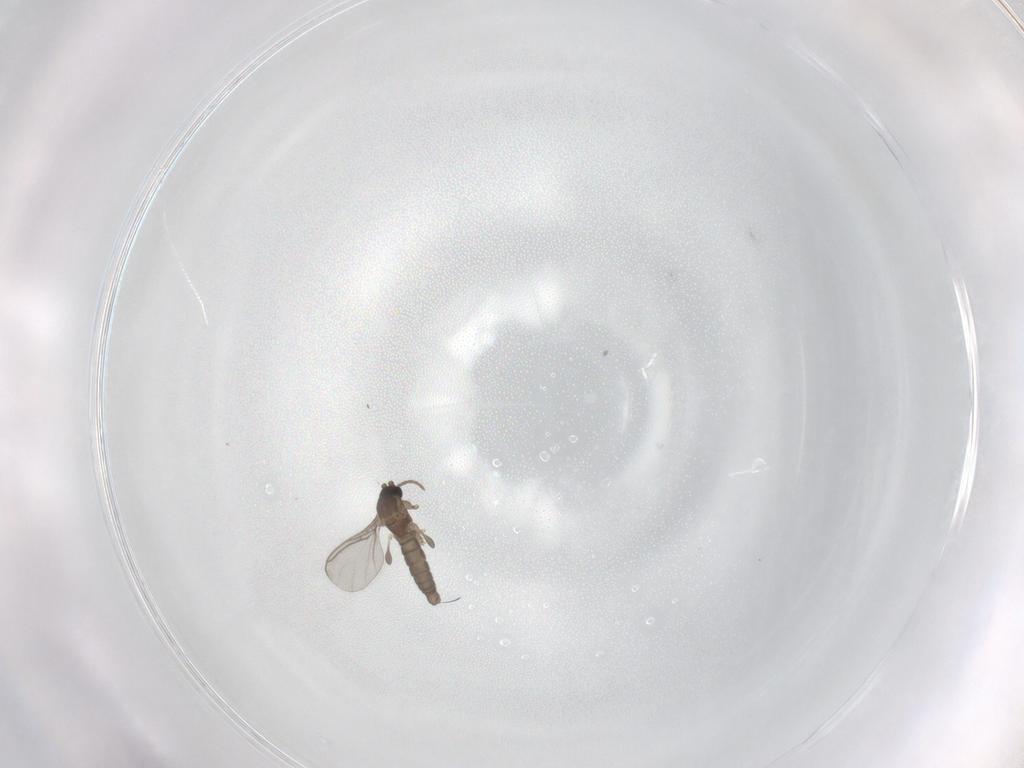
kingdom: Animalia
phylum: Arthropoda
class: Insecta
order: Diptera
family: Sciaridae
